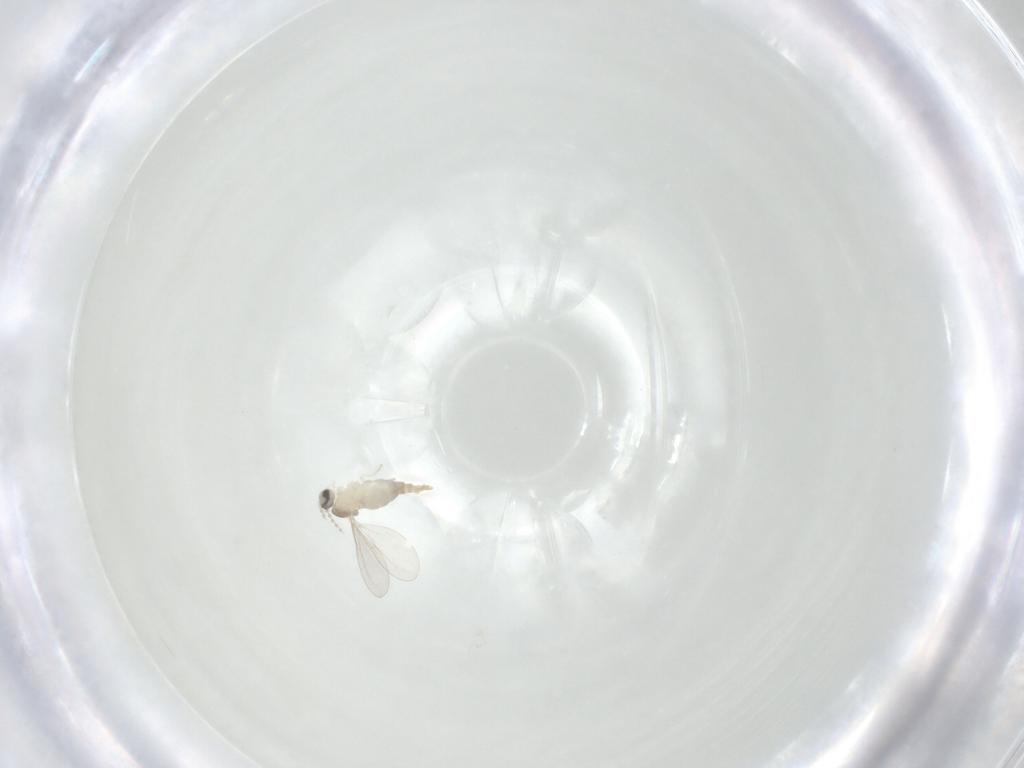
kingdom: Animalia
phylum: Arthropoda
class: Insecta
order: Diptera
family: Cecidomyiidae
